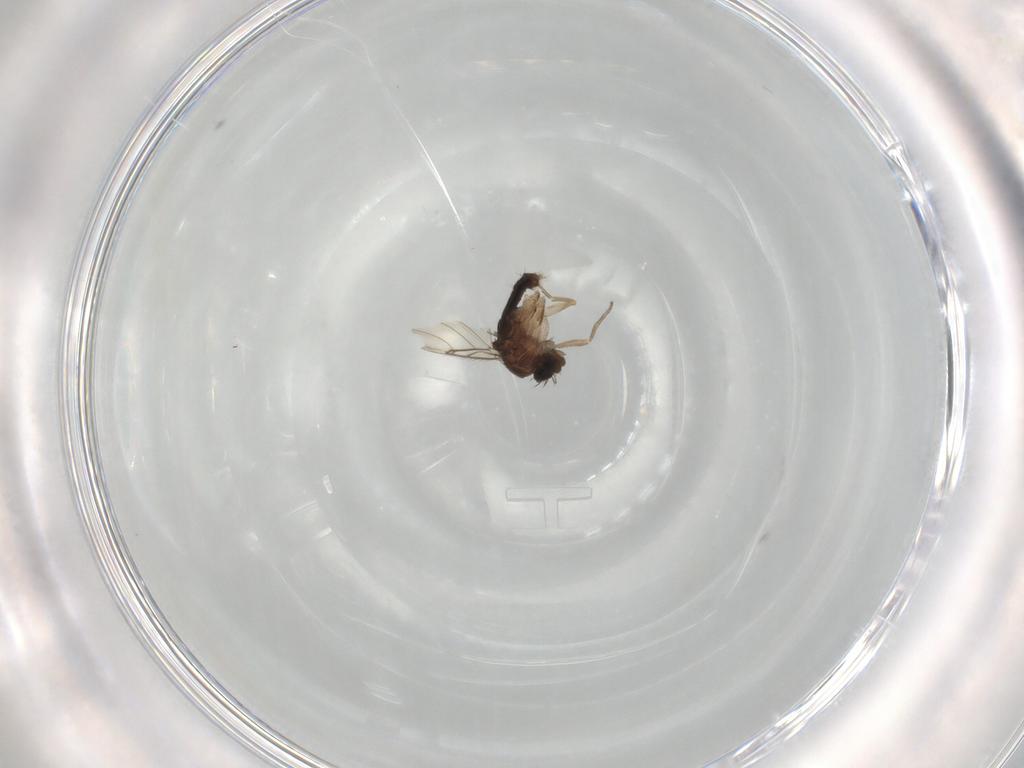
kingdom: Animalia
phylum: Arthropoda
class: Insecta
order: Diptera
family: Phoridae
